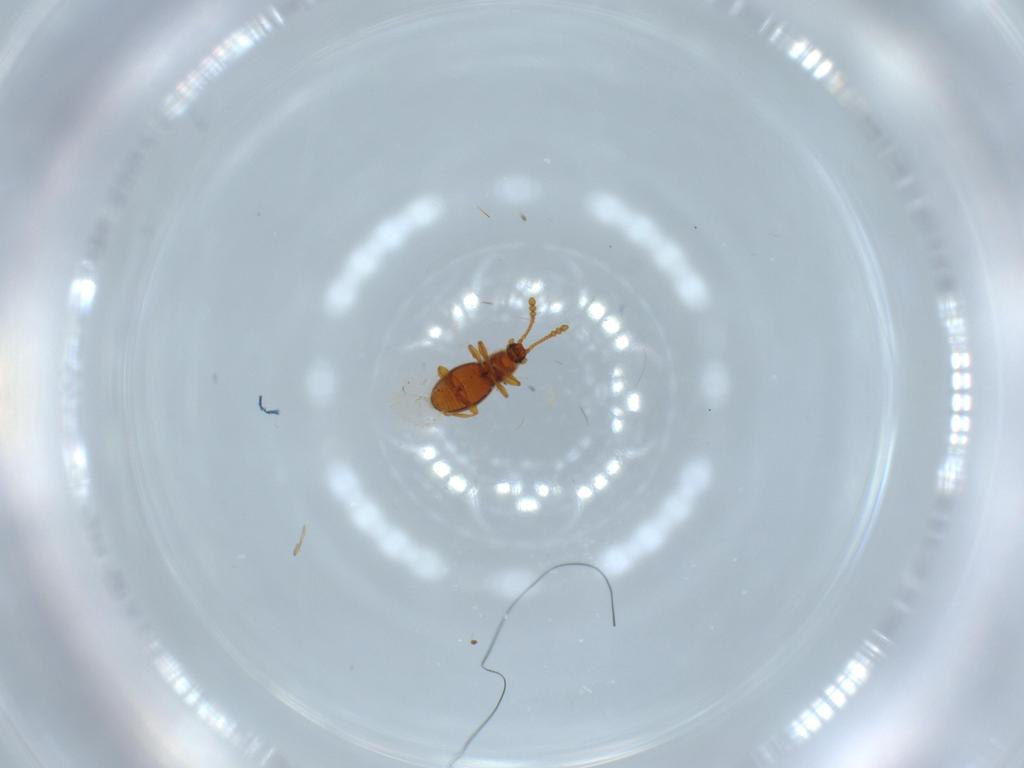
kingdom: Animalia
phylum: Arthropoda
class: Insecta
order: Coleoptera
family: Staphylinidae
